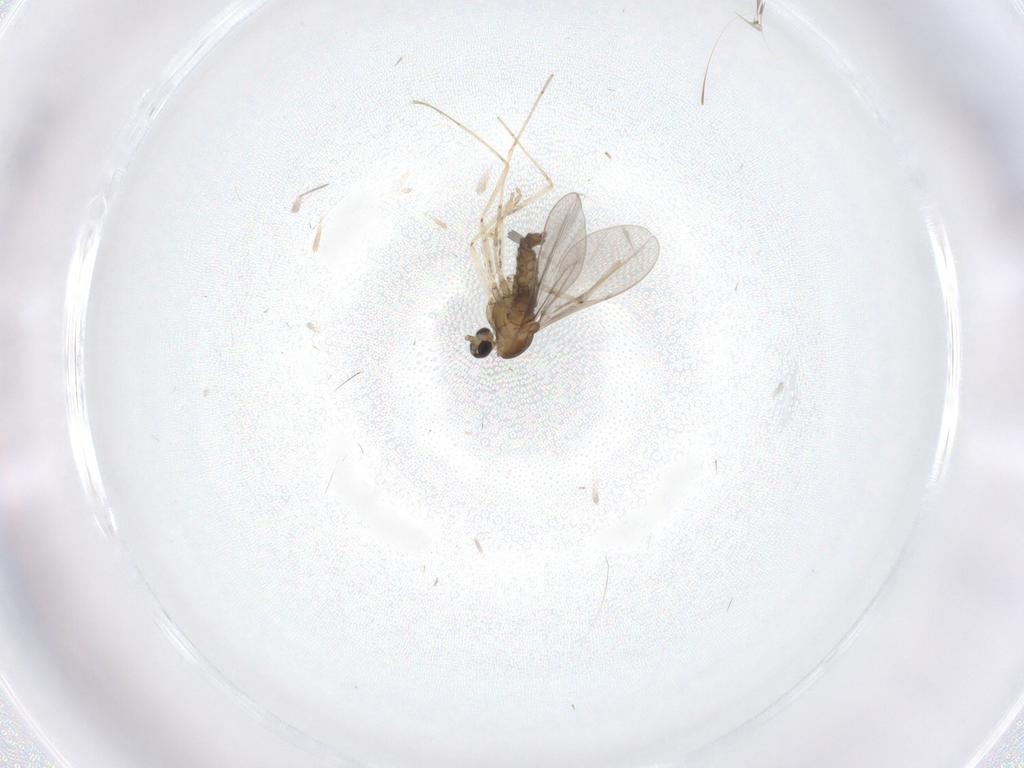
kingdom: Animalia
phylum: Arthropoda
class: Insecta
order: Diptera
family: Cecidomyiidae
